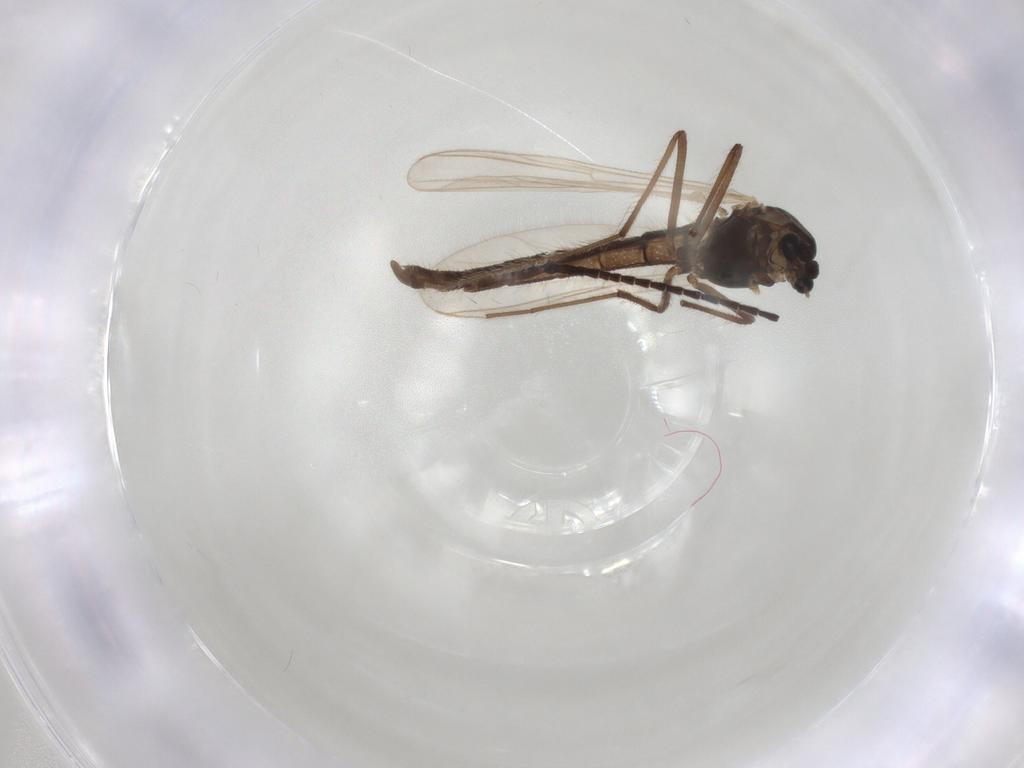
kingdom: Animalia
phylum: Arthropoda
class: Insecta
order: Diptera
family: Chironomidae
